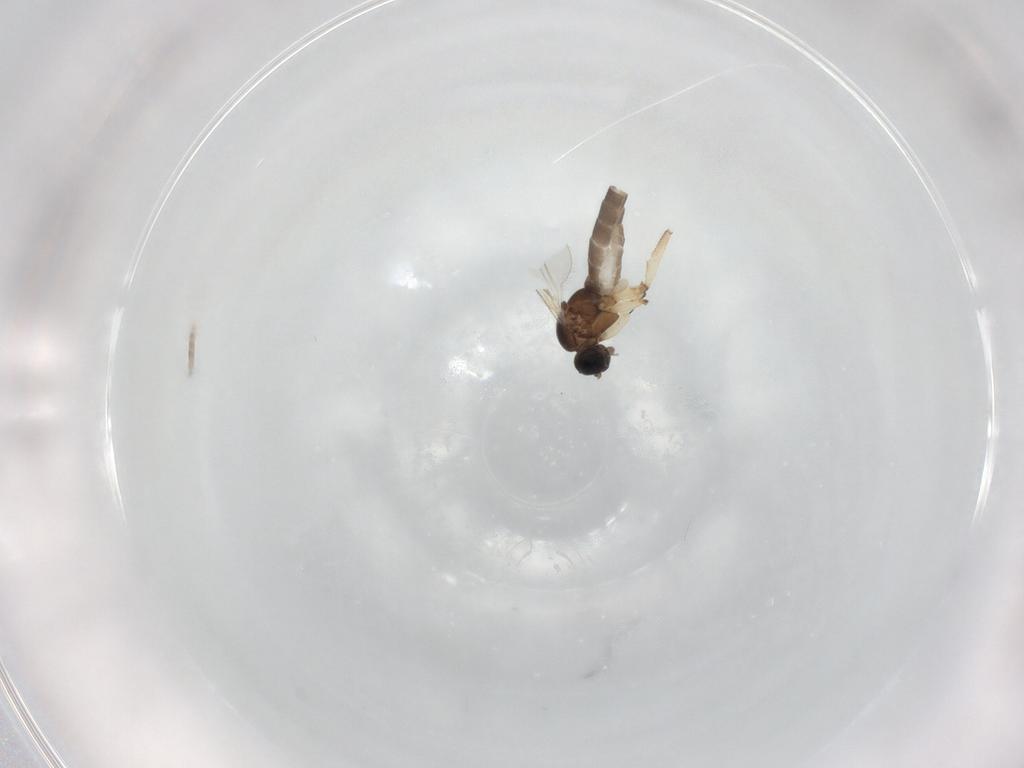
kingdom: Animalia
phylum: Arthropoda
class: Insecta
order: Diptera
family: Sciaridae
